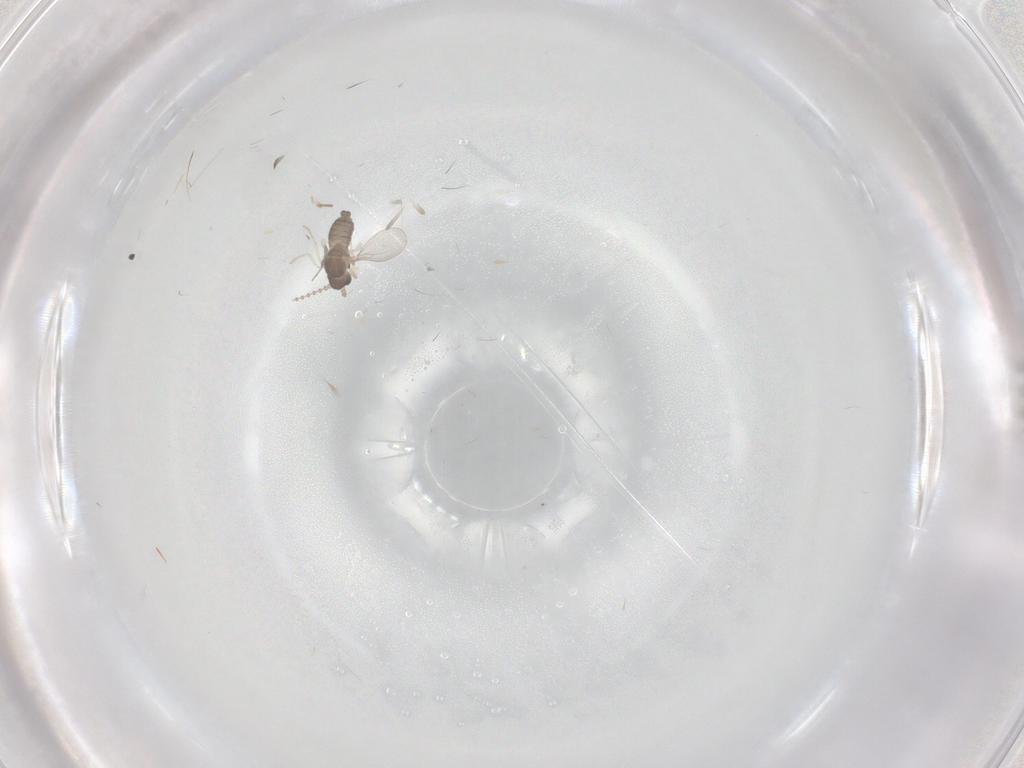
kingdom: Animalia
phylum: Arthropoda
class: Insecta
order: Diptera
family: Cecidomyiidae
